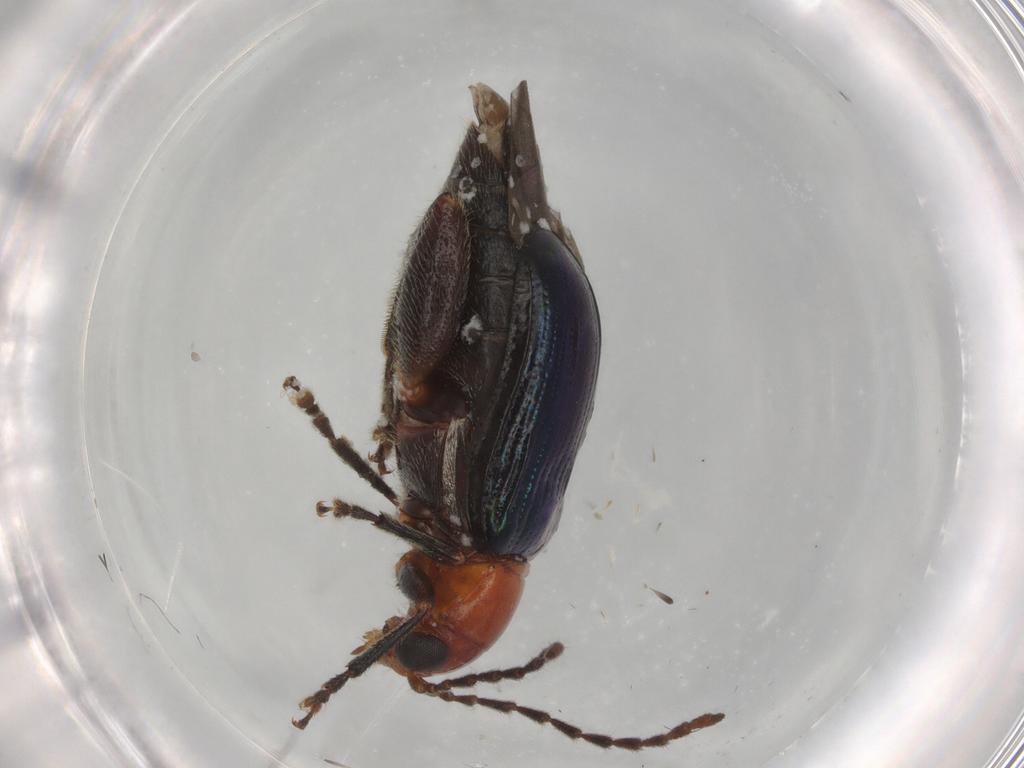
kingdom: Animalia
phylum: Arthropoda
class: Insecta
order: Coleoptera
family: Chrysomelidae
